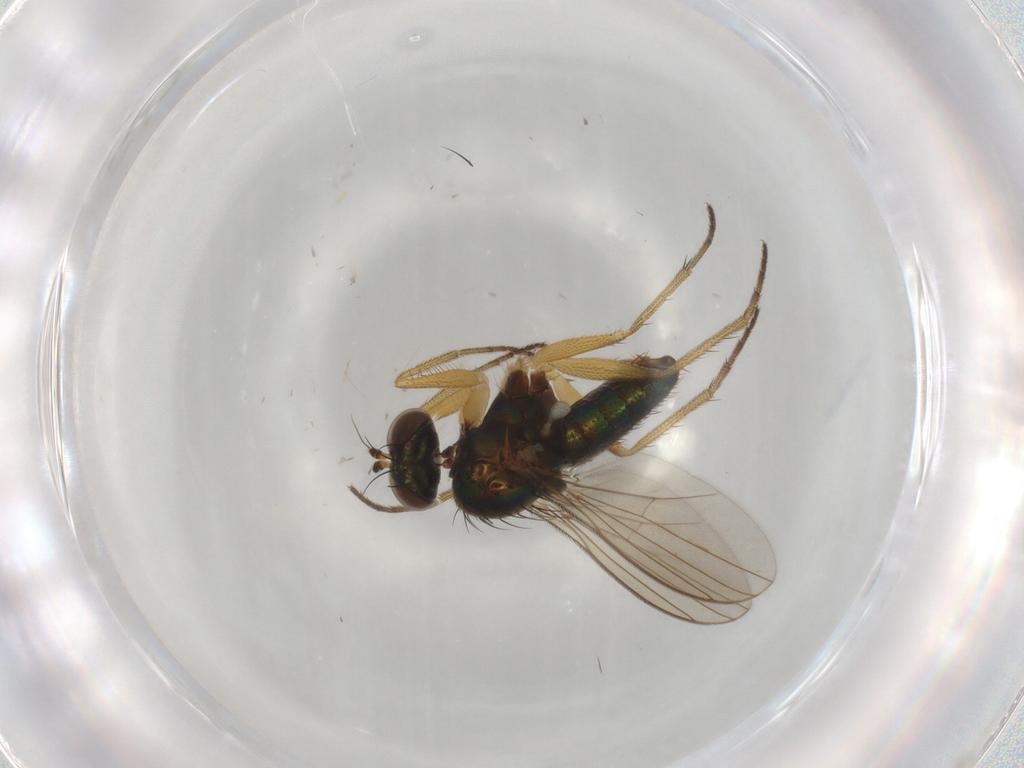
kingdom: Animalia
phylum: Arthropoda
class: Insecta
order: Diptera
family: Dolichopodidae
